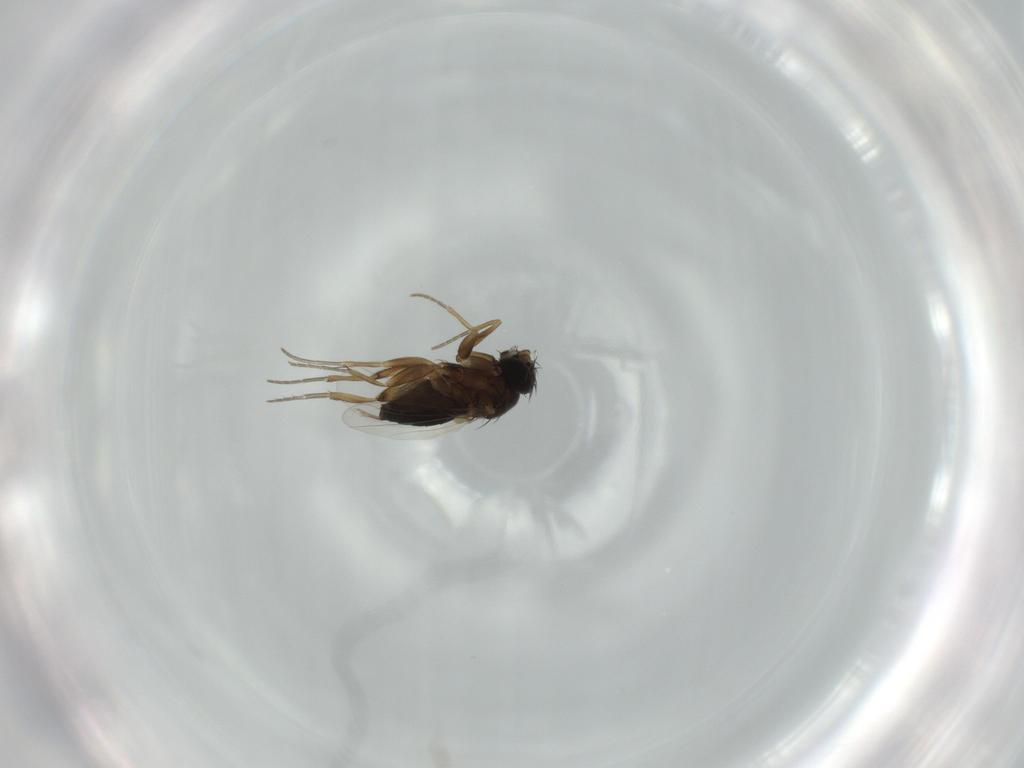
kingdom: Animalia
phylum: Arthropoda
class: Insecta
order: Diptera
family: Phoridae
